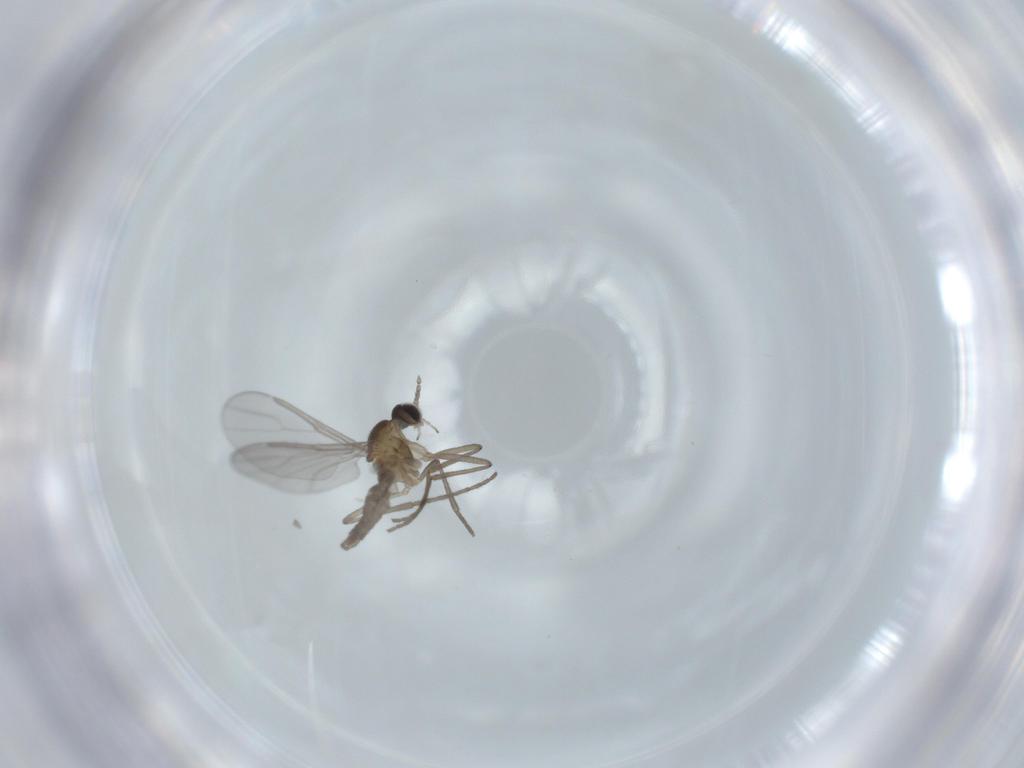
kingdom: Animalia
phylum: Arthropoda
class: Insecta
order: Diptera
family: Cecidomyiidae
